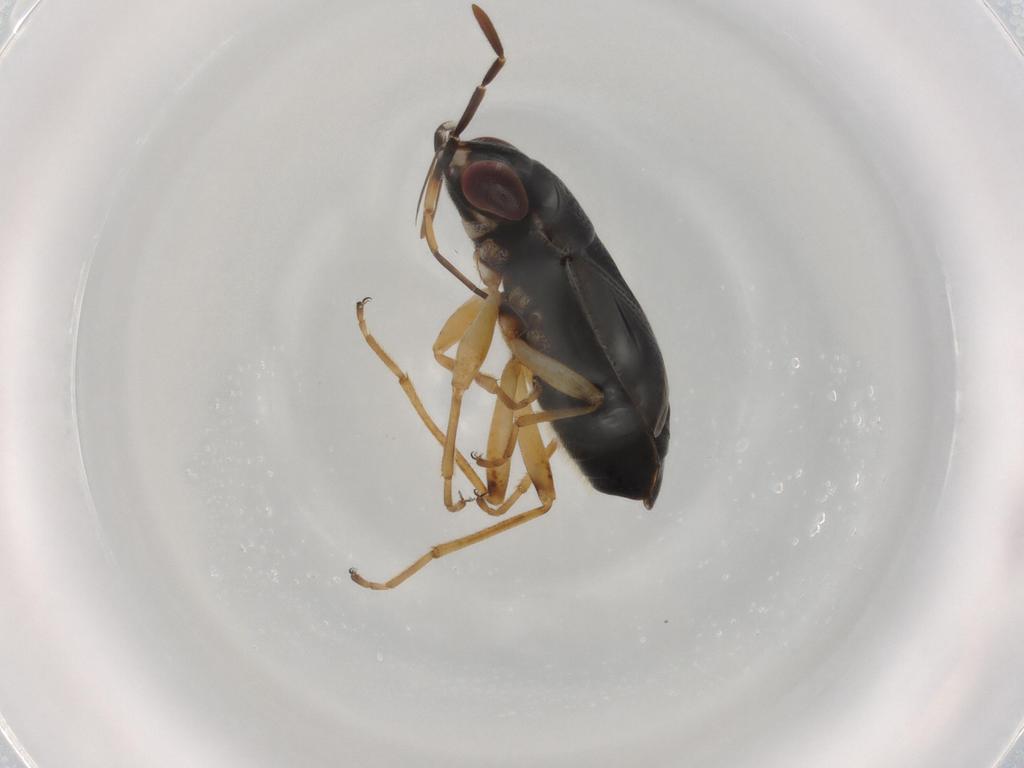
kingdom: Animalia
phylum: Arthropoda
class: Insecta
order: Hemiptera
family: Geocoridae
